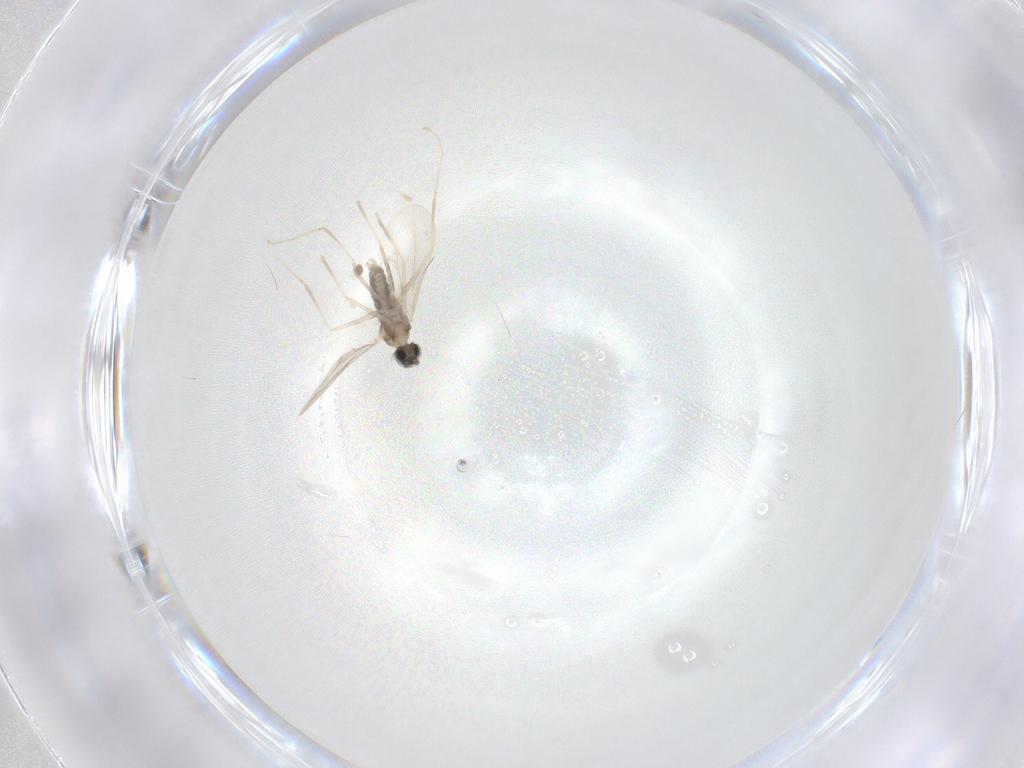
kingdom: Animalia
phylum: Arthropoda
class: Insecta
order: Diptera
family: Cecidomyiidae
